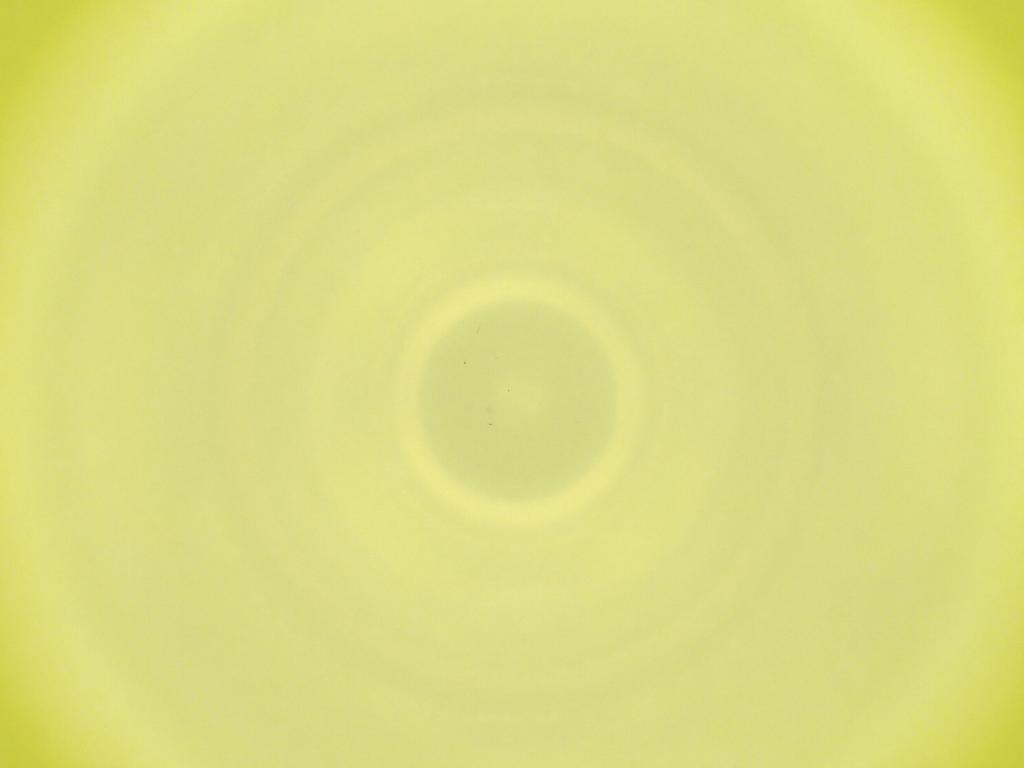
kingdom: Animalia
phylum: Arthropoda
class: Insecta
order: Diptera
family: Cecidomyiidae
